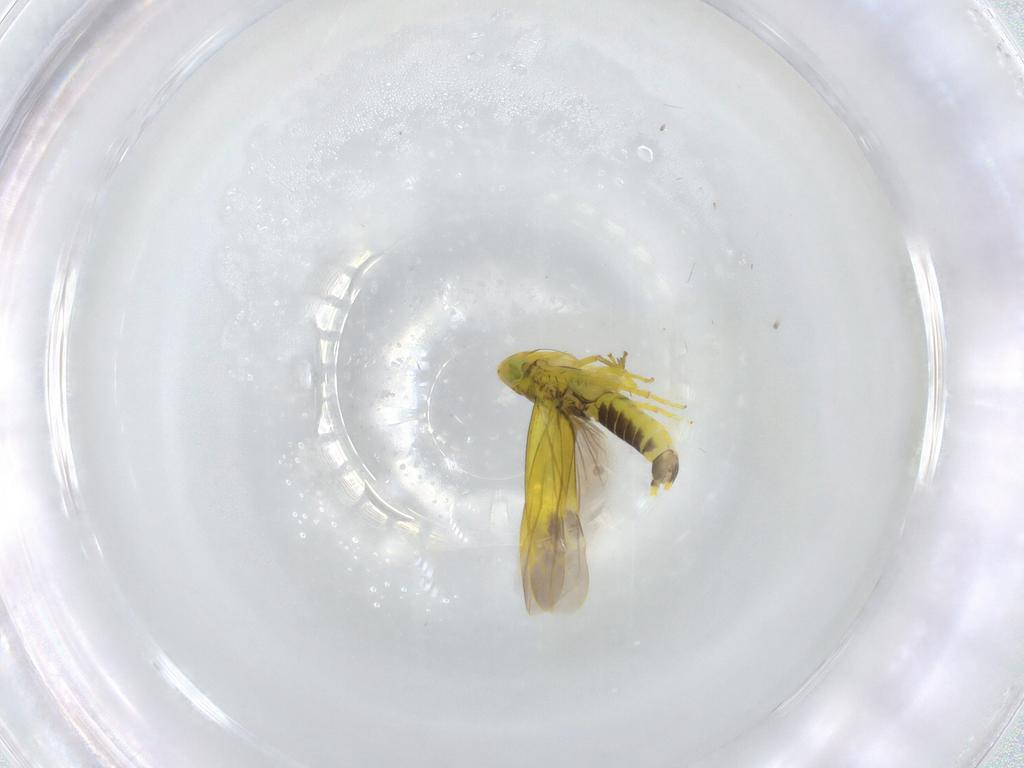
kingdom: Animalia
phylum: Arthropoda
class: Insecta
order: Hemiptera
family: Cicadellidae
